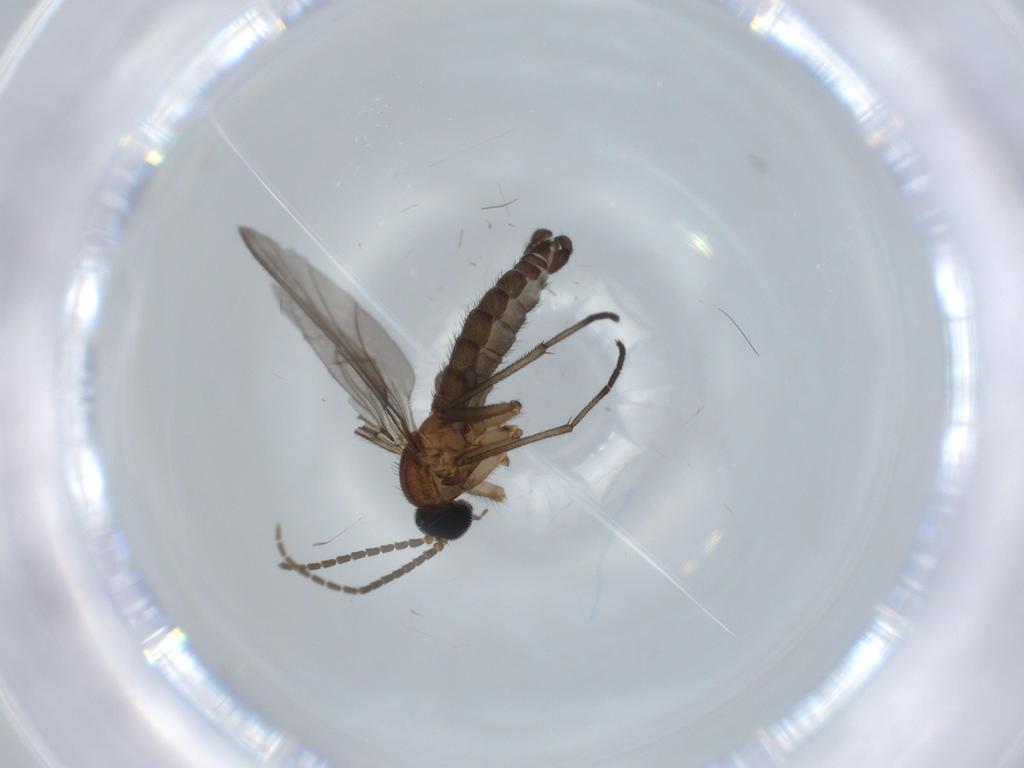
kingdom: Animalia
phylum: Arthropoda
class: Insecta
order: Diptera
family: Sciaridae
